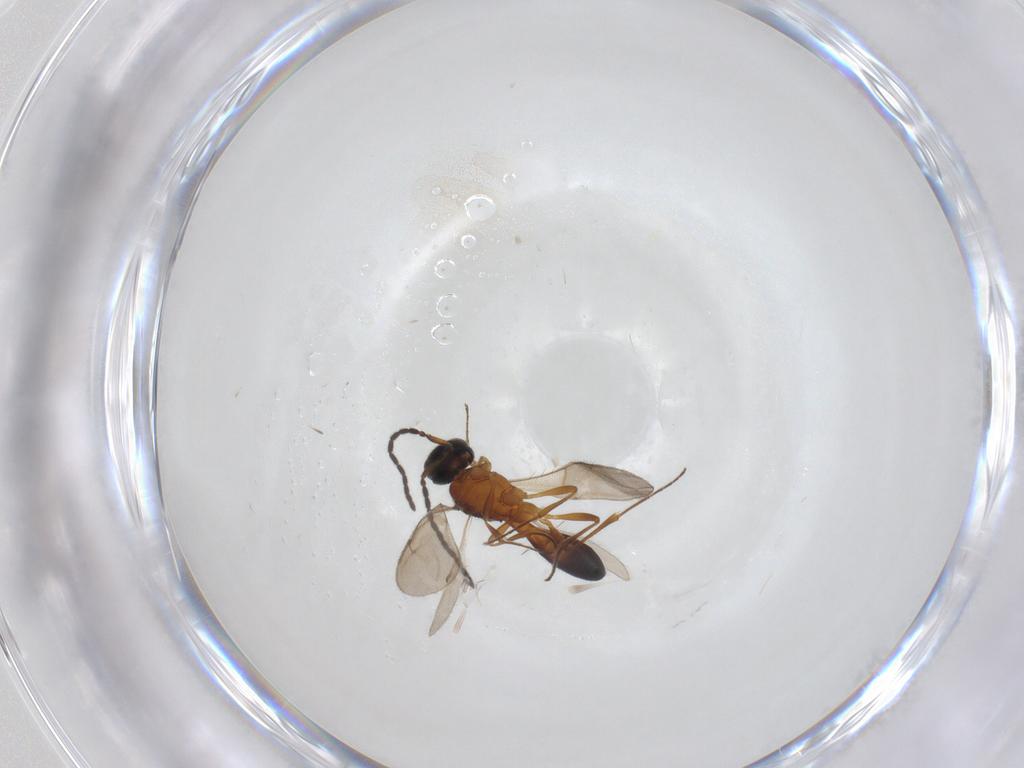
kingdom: Animalia
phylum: Arthropoda
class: Insecta
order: Hymenoptera
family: Scelionidae
